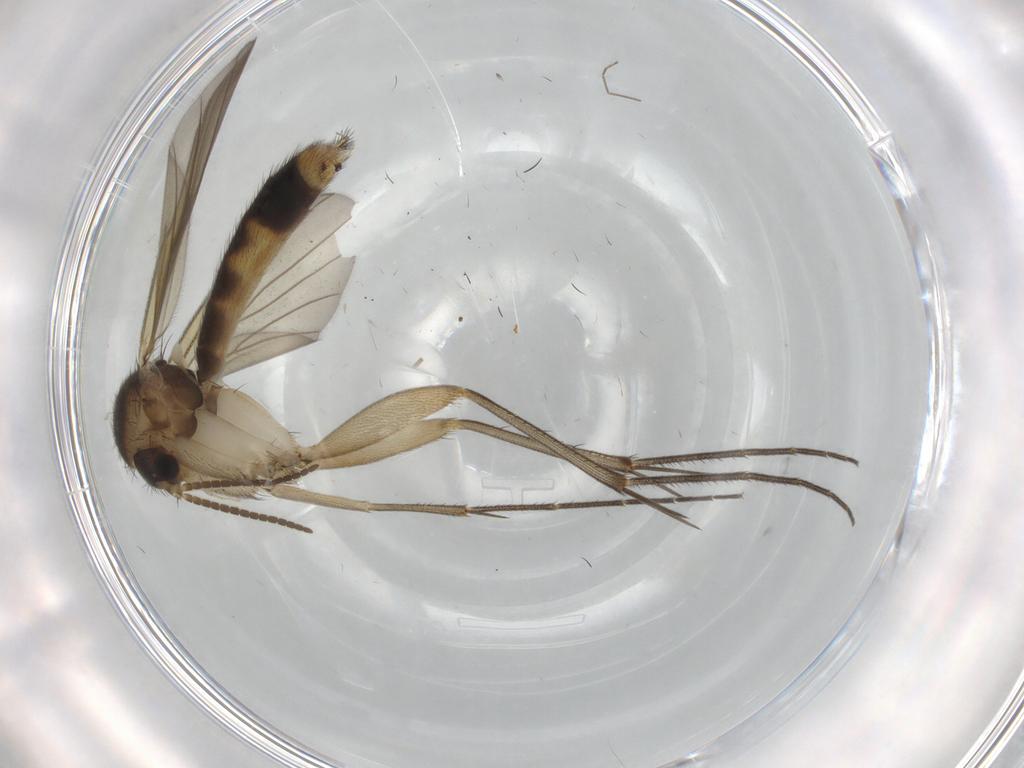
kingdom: Animalia
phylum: Arthropoda
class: Insecta
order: Diptera
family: Mycetophilidae
